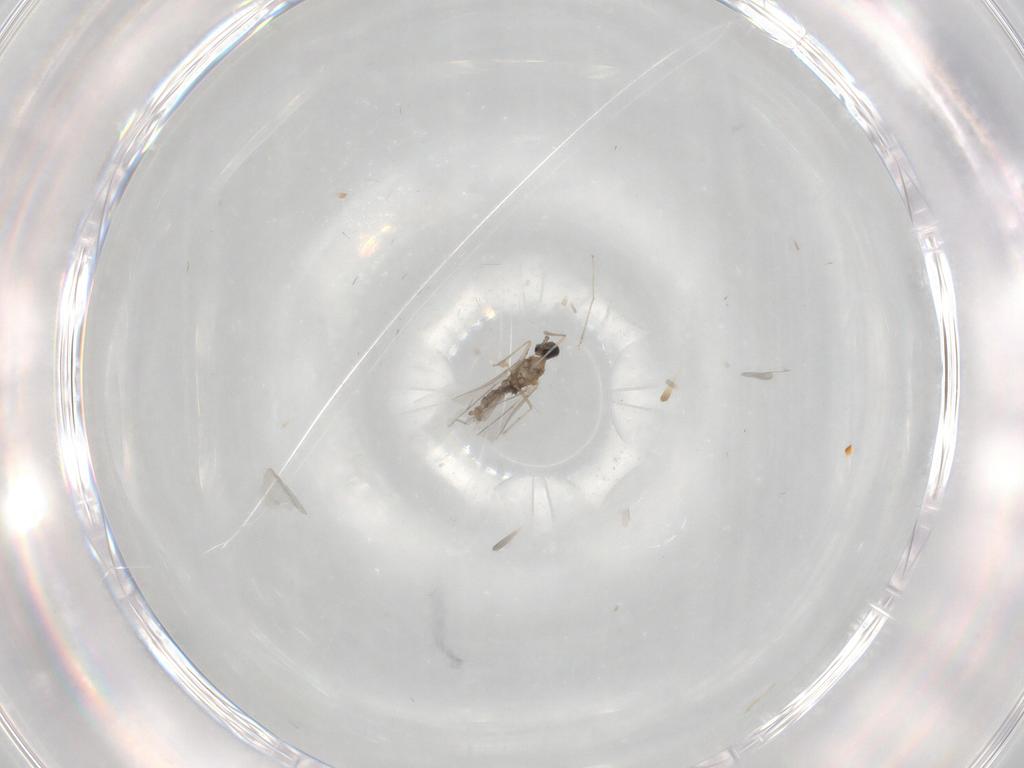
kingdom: Animalia
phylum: Arthropoda
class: Insecta
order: Diptera
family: Cecidomyiidae
